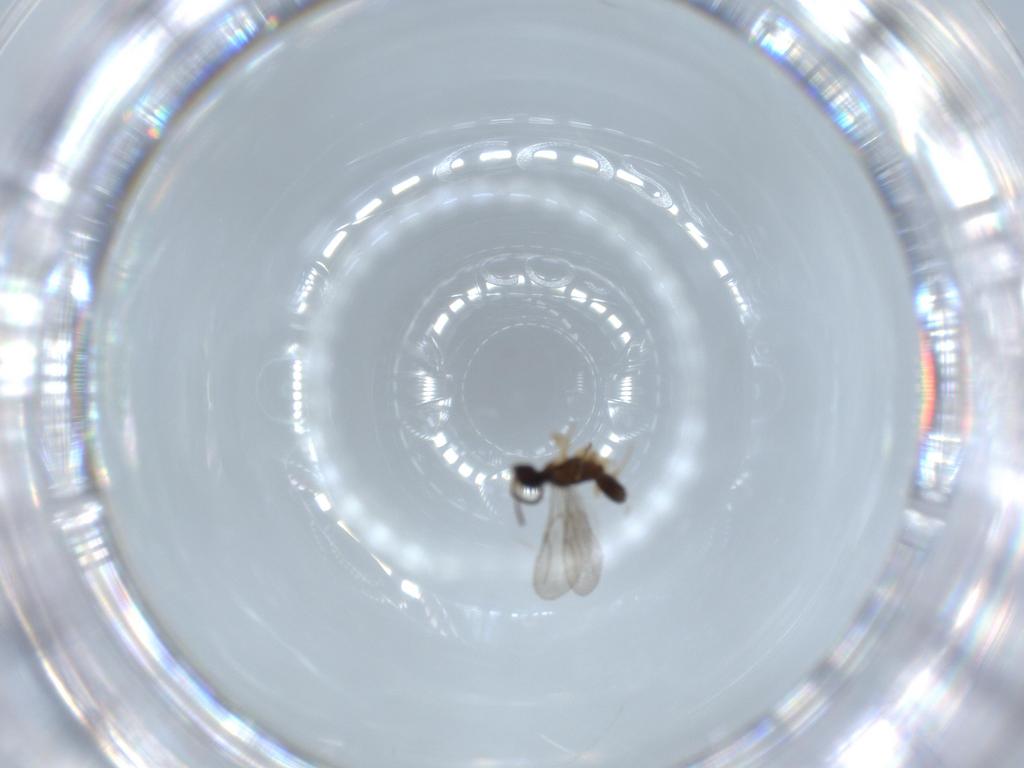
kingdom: Animalia
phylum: Arthropoda
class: Insecta
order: Hymenoptera
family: Bethylidae
